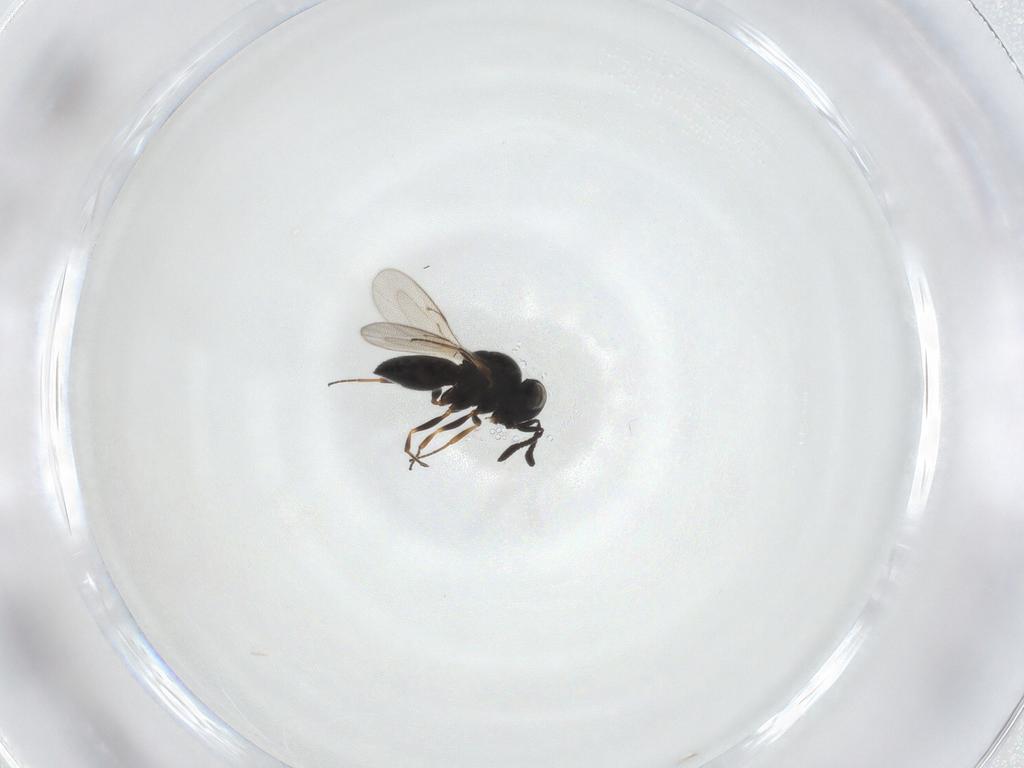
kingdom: Animalia
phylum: Arthropoda
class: Insecta
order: Hymenoptera
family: Scelionidae
